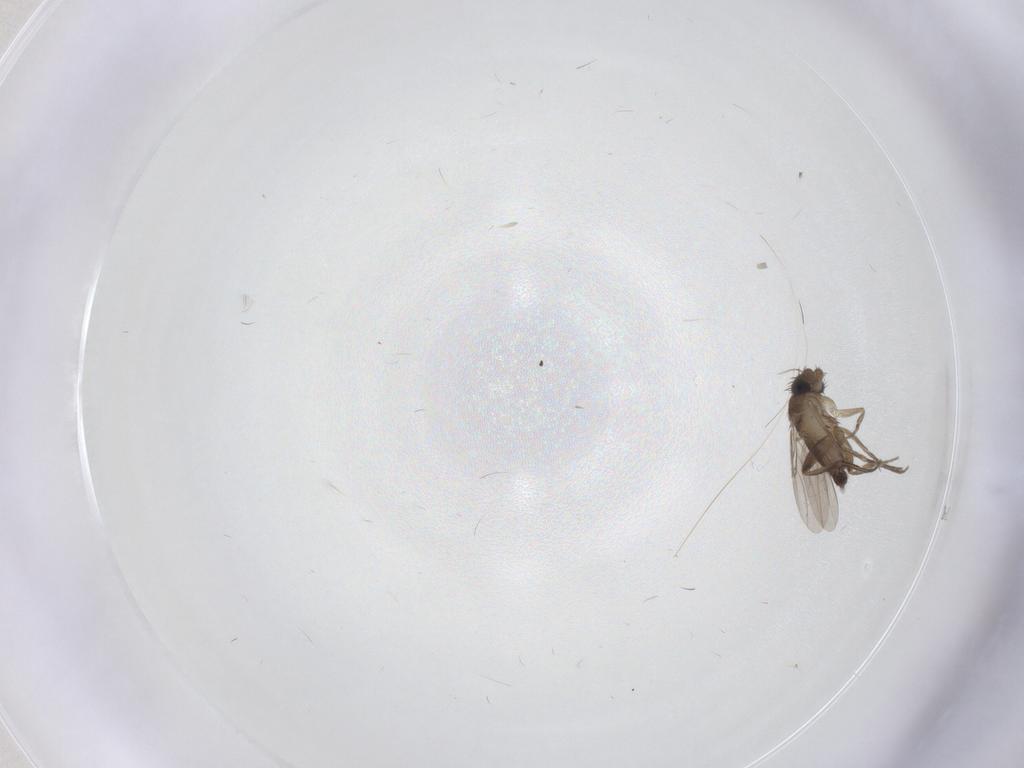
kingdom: Animalia
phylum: Arthropoda
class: Insecta
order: Diptera
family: Phoridae
